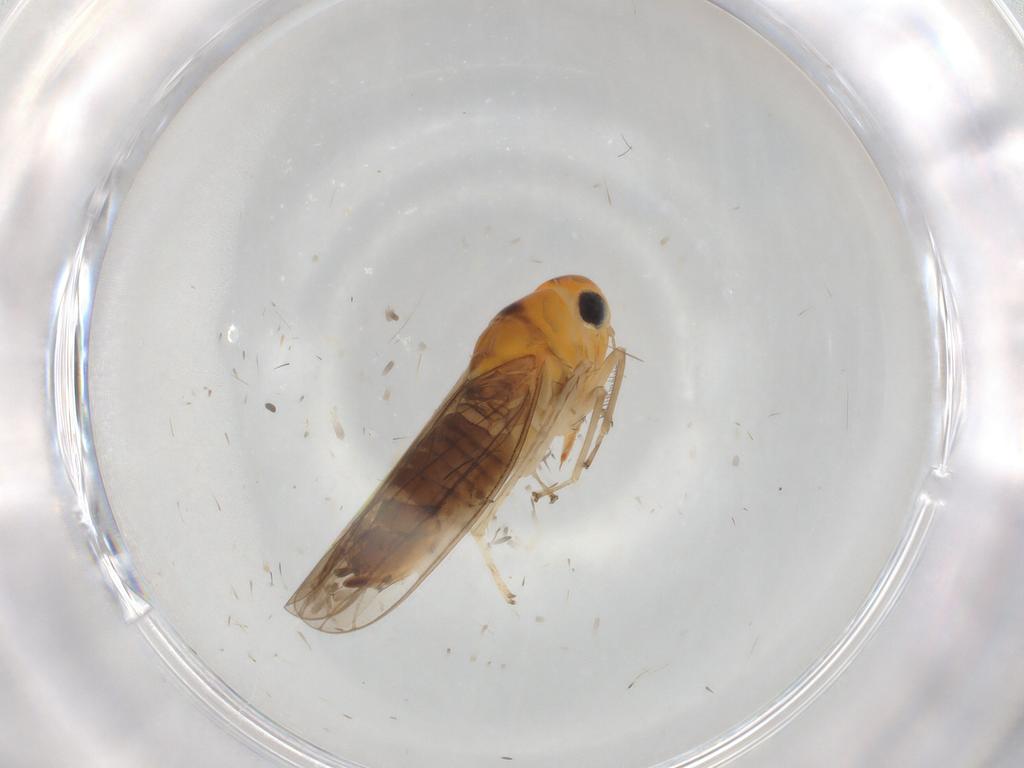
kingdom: Animalia
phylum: Arthropoda
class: Insecta
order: Hemiptera
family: Cicadellidae
